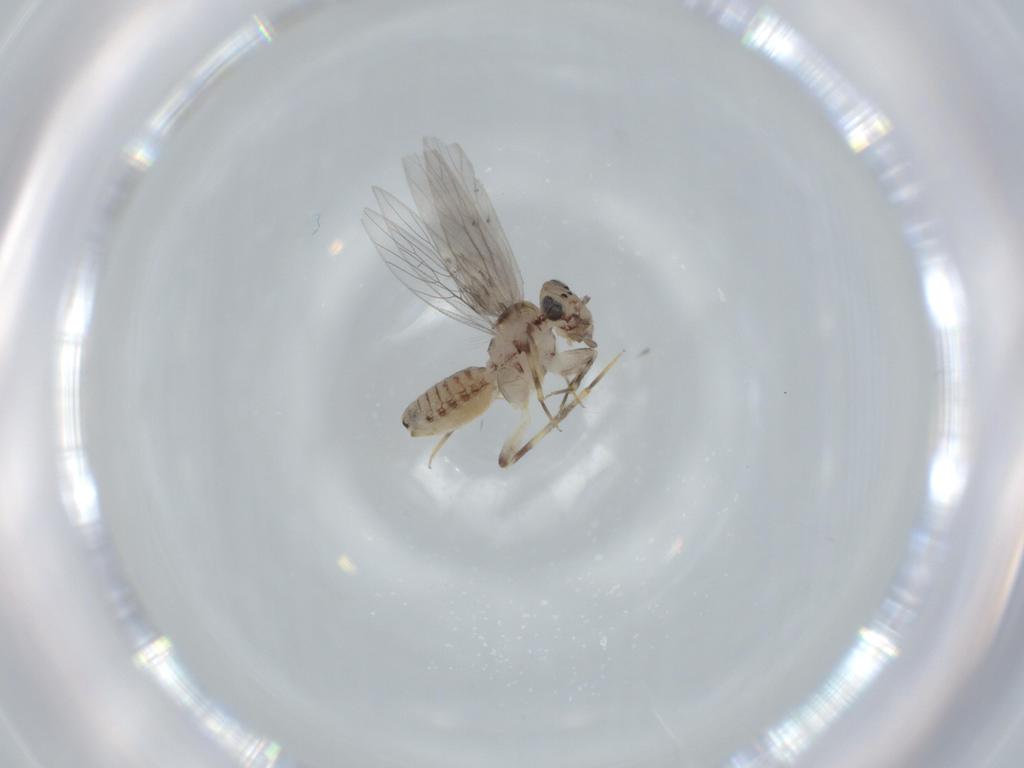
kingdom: Animalia
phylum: Arthropoda
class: Insecta
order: Psocodea
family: Lepidopsocidae
